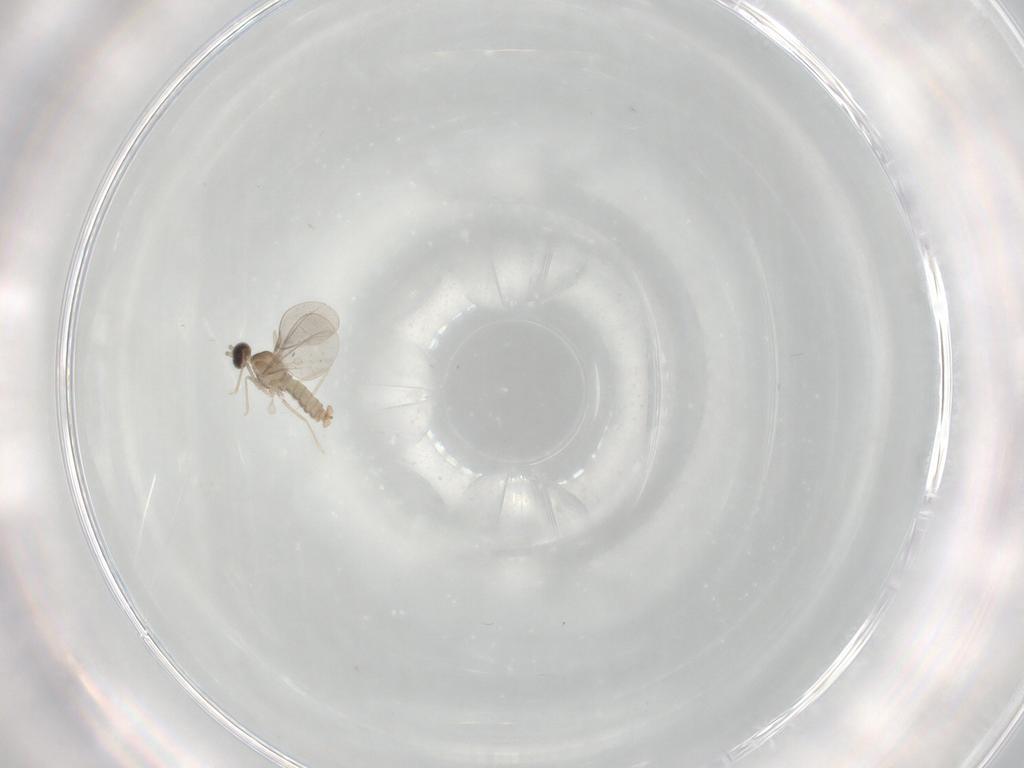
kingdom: Animalia
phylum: Arthropoda
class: Insecta
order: Diptera
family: Cecidomyiidae
